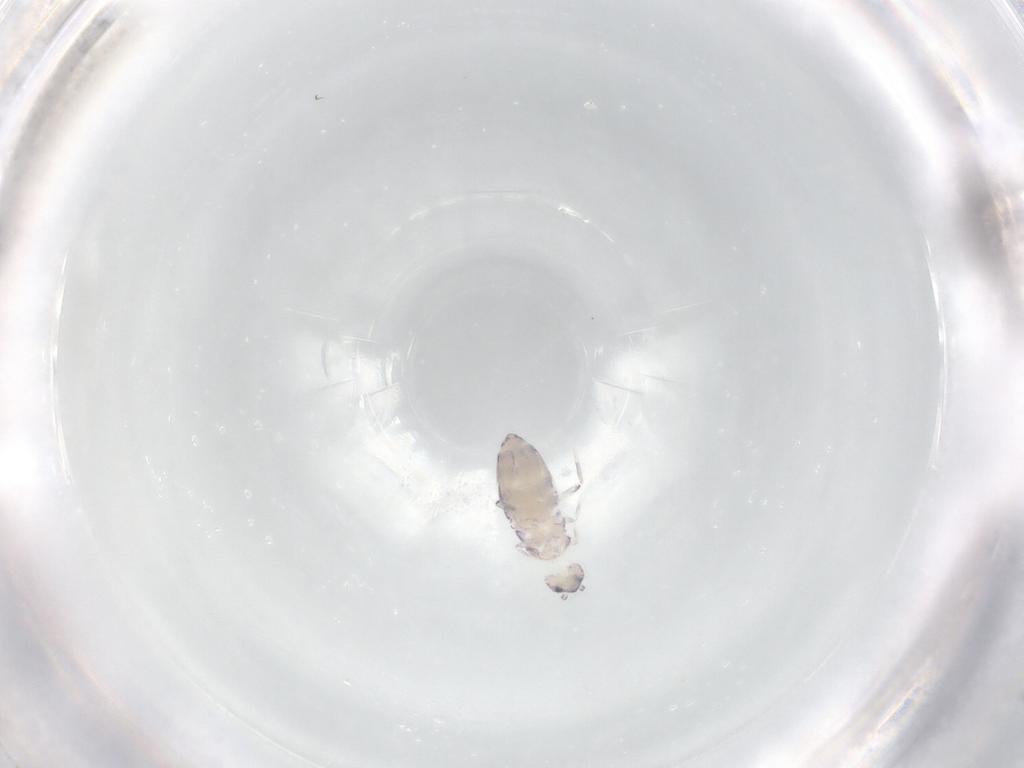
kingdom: Animalia
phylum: Arthropoda
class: Collembola
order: Entomobryomorpha
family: Entomobryidae
